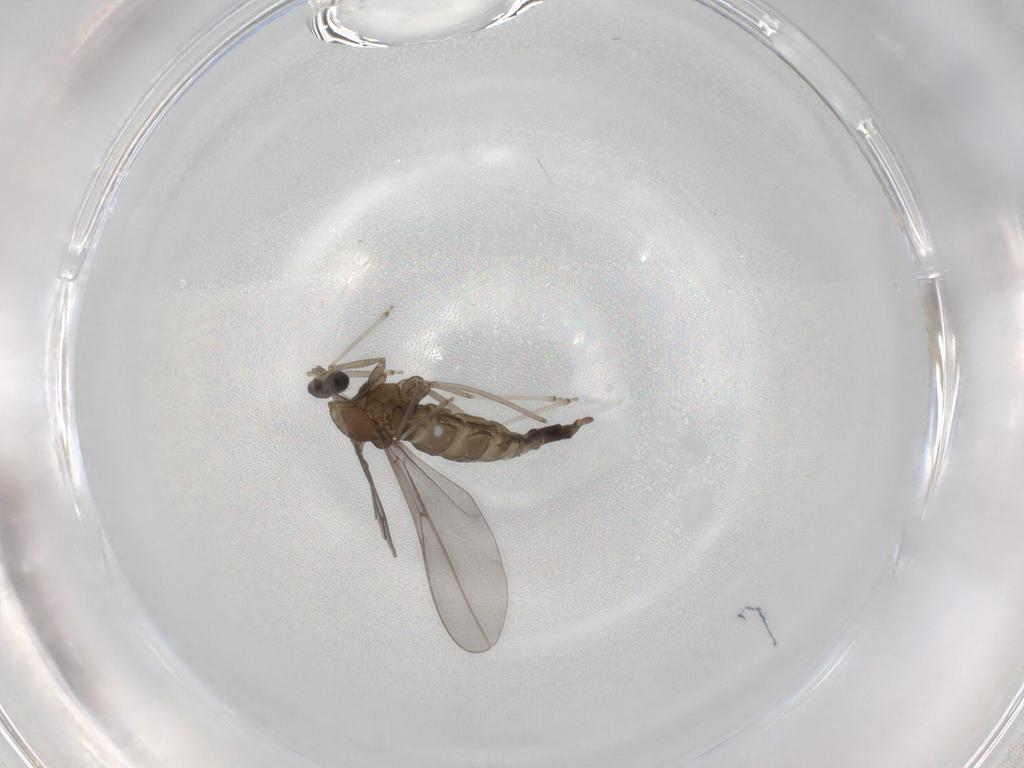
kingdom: Animalia
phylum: Arthropoda
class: Insecta
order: Diptera
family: Cecidomyiidae
